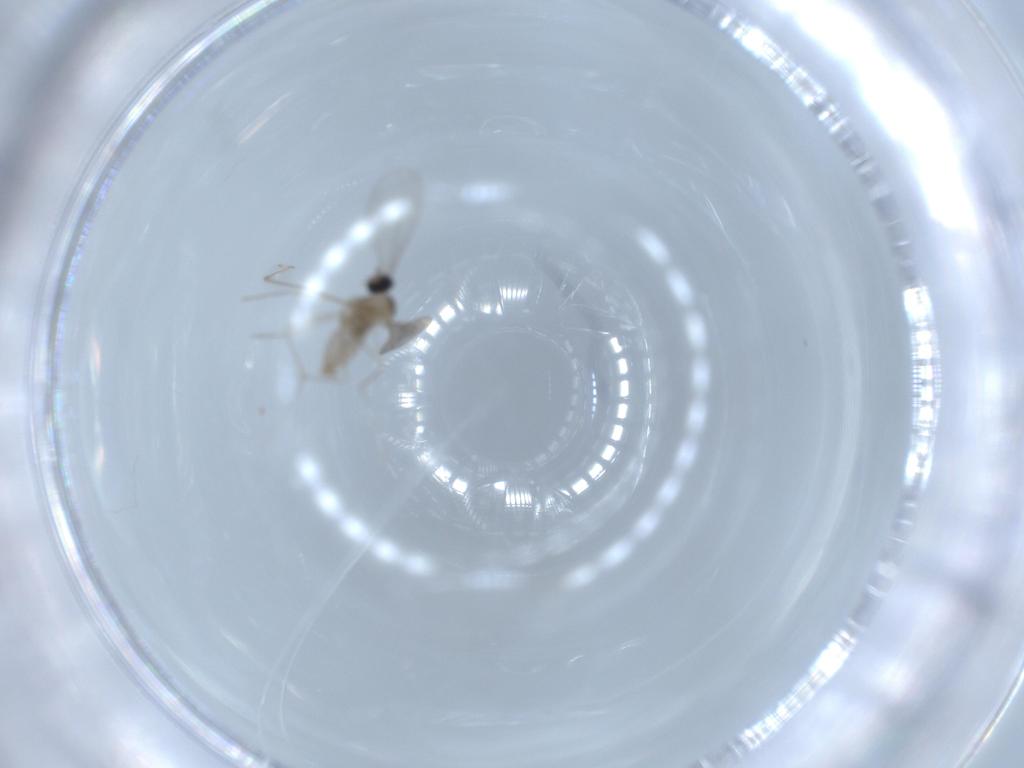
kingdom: Animalia
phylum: Arthropoda
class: Insecta
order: Diptera
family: Cecidomyiidae
